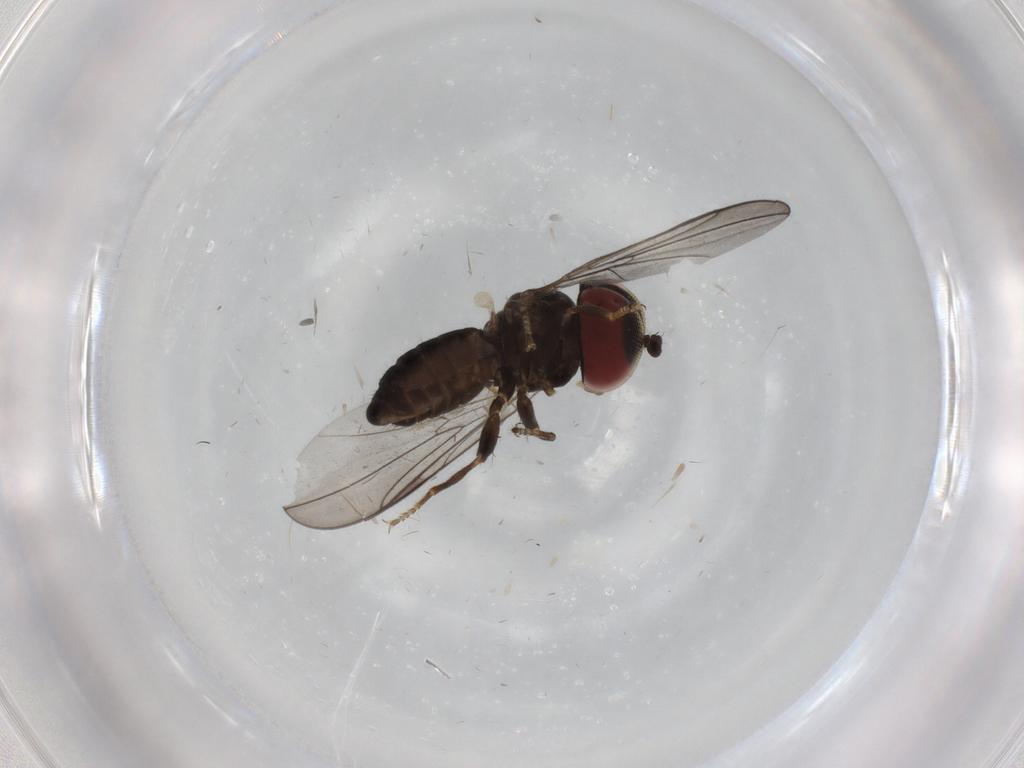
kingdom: Animalia
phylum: Arthropoda
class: Insecta
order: Diptera
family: Pipunculidae
